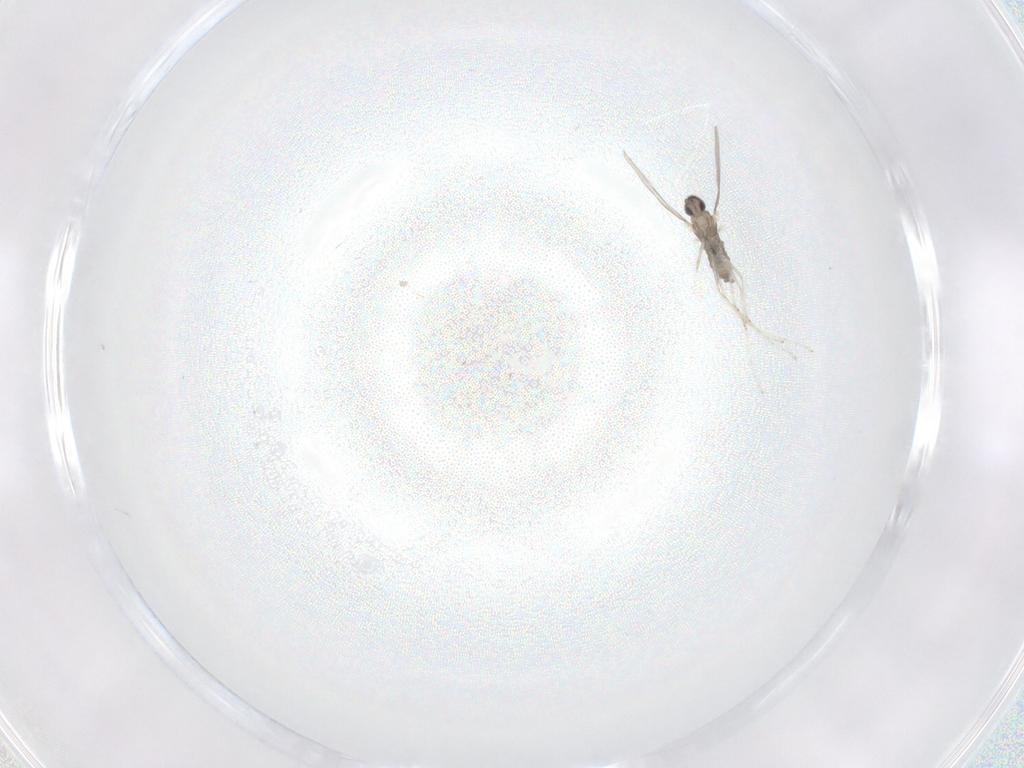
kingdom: Animalia
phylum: Arthropoda
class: Insecta
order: Diptera
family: Cecidomyiidae
